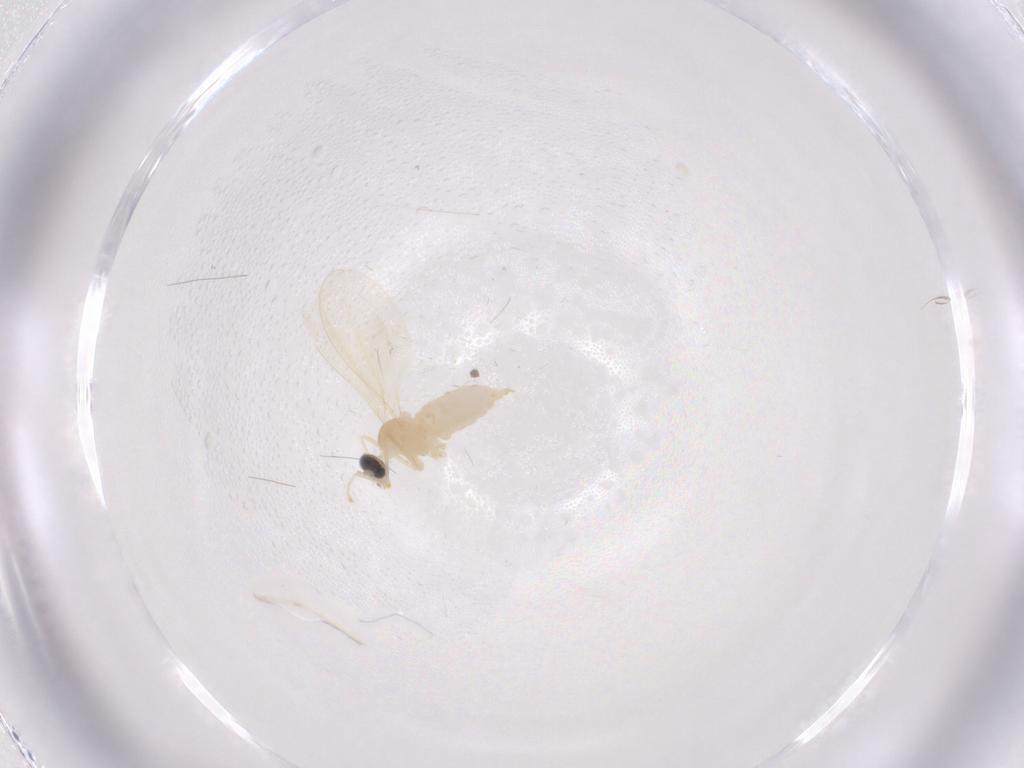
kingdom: Animalia
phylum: Arthropoda
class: Insecta
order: Diptera
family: Cecidomyiidae
